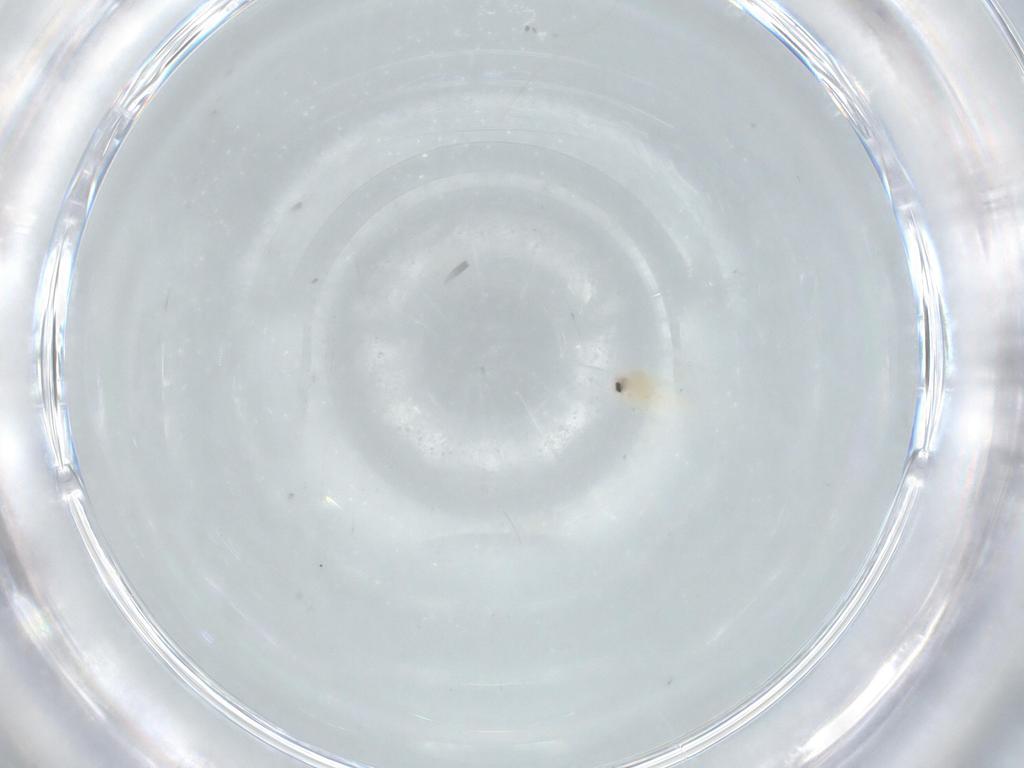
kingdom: Animalia
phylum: Arthropoda
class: Insecta
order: Hemiptera
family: Aleyrodidae
